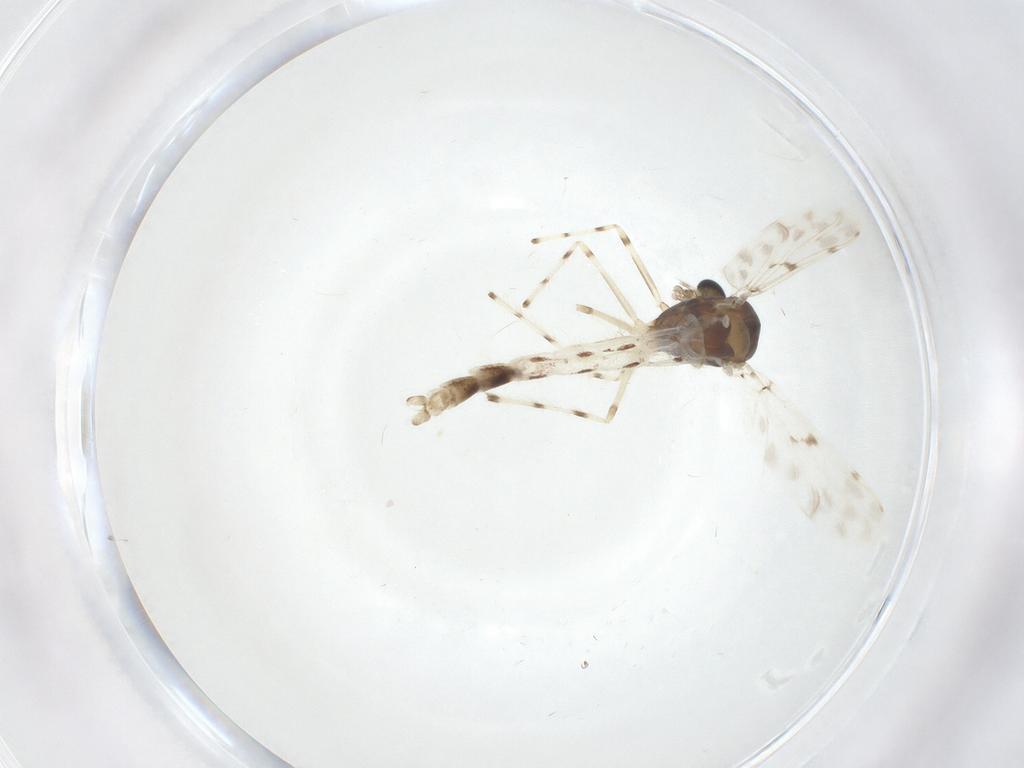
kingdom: Animalia
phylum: Arthropoda
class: Insecta
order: Diptera
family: Chironomidae
